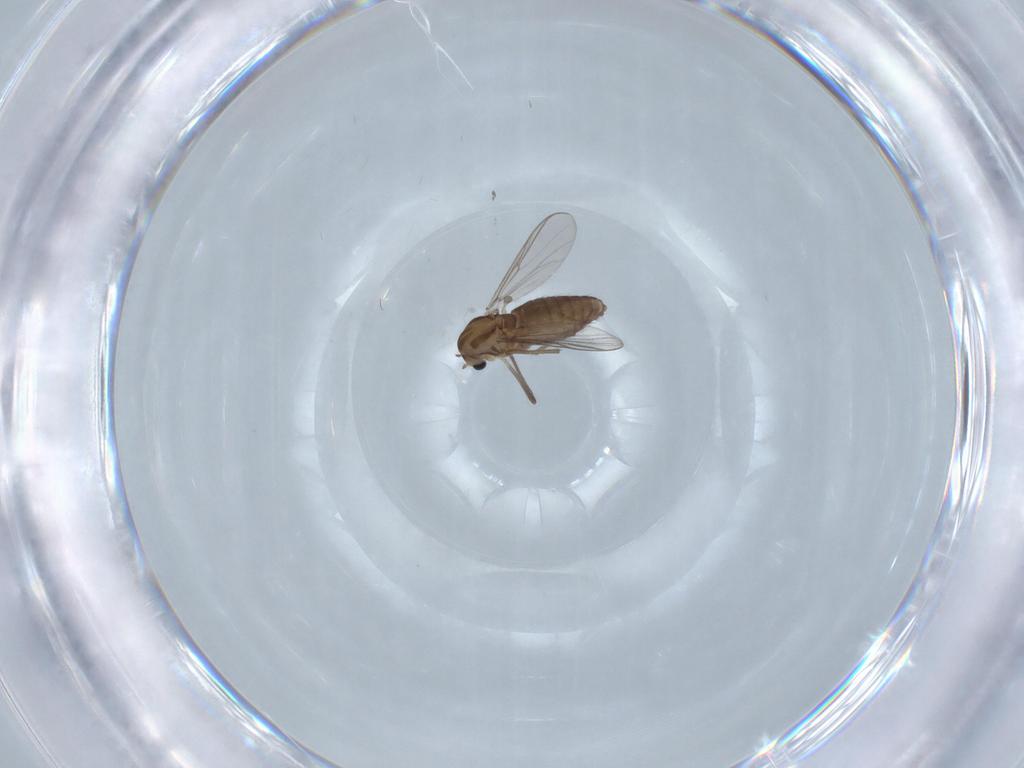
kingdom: Animalia
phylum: Arthropoda
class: Insecta
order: Diptera
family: Chironomidae
